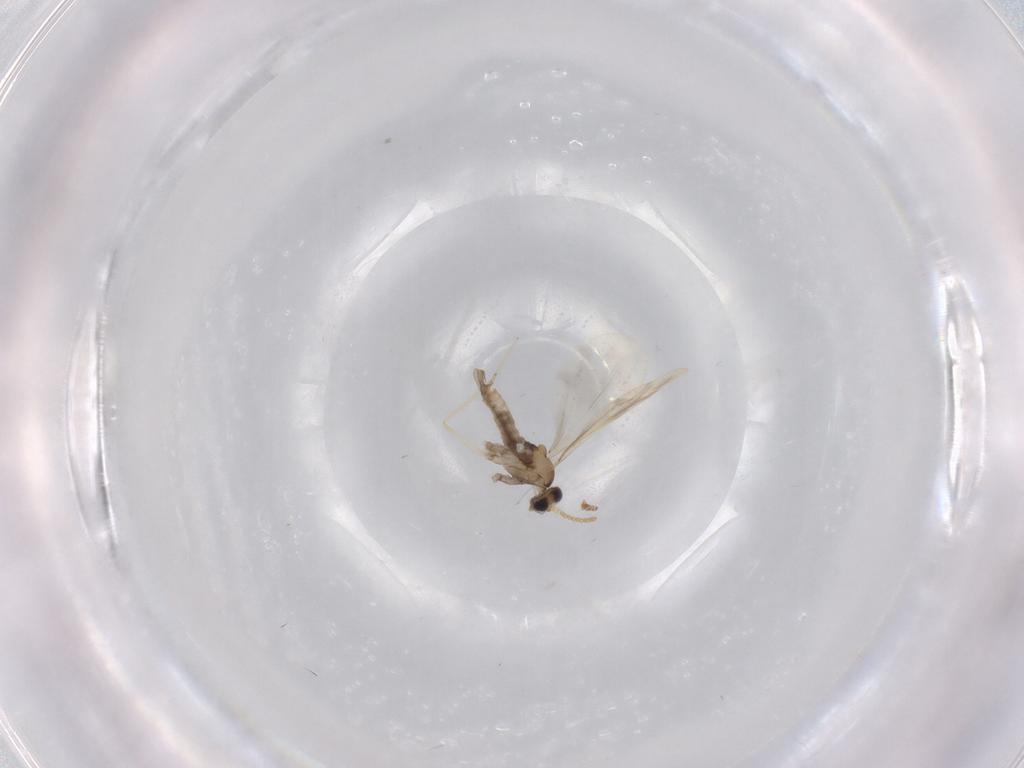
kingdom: Animalia
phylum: Arthropoda
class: Insecta
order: Diptera
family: Cecidomyiidae
